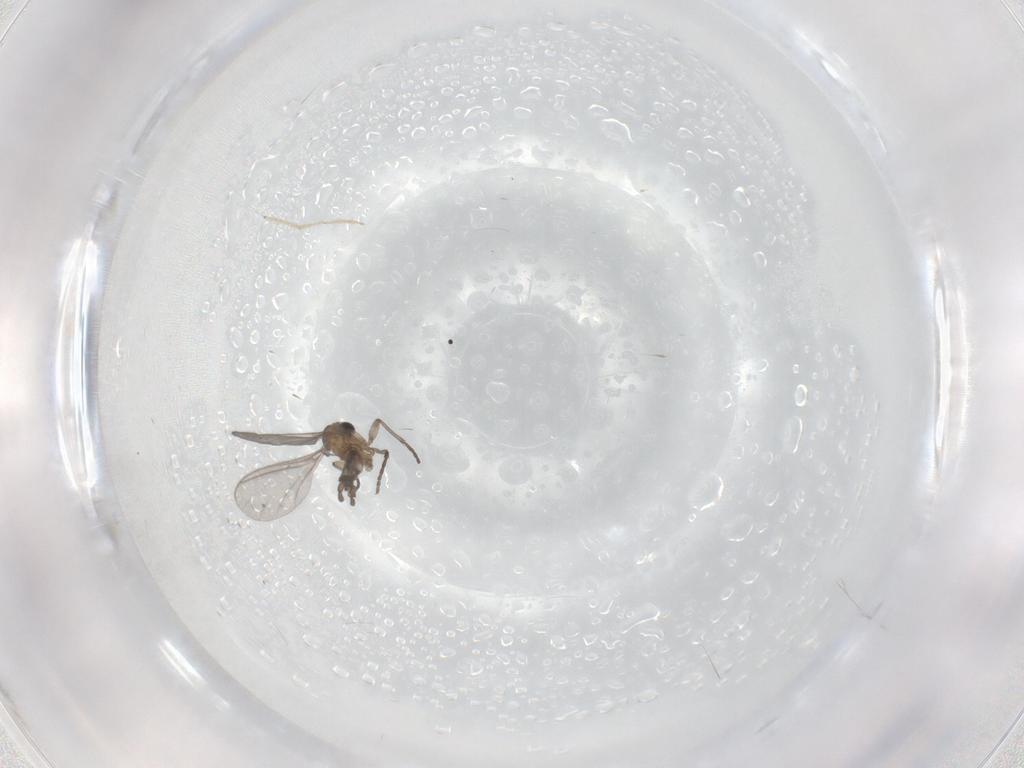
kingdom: Animalia
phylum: Arthropoda
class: Insecta
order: Diptera
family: Sciaridae
